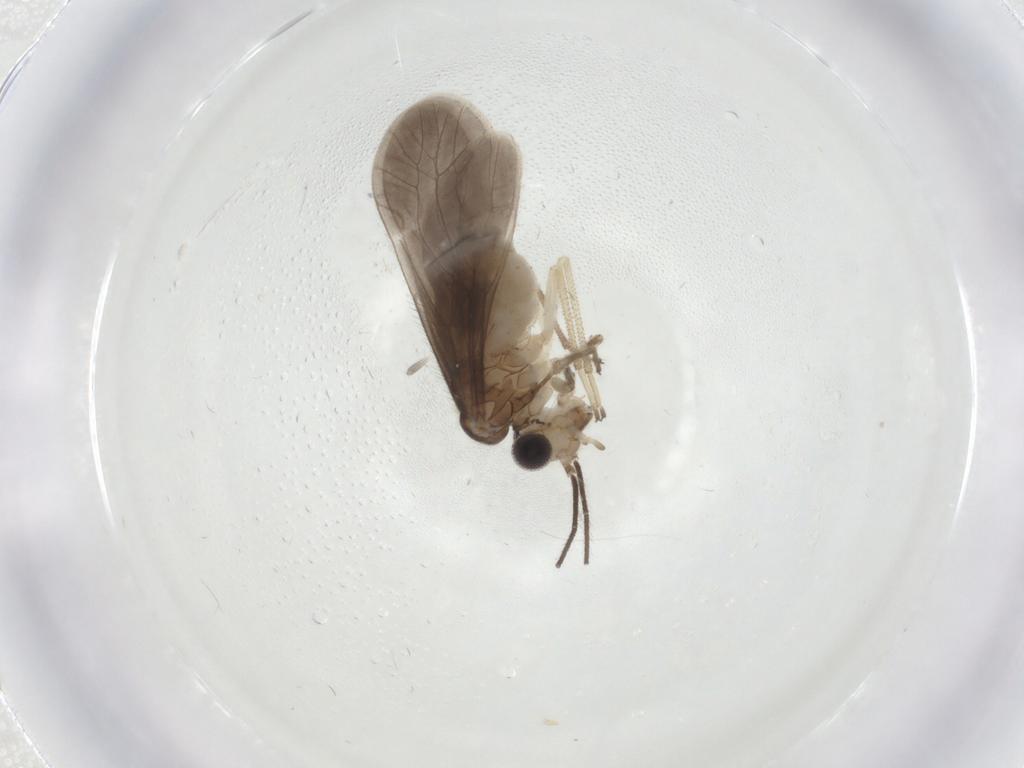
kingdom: Animalia
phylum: Arthropoda
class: Insecta
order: Psocodea
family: Caeciliusidae
